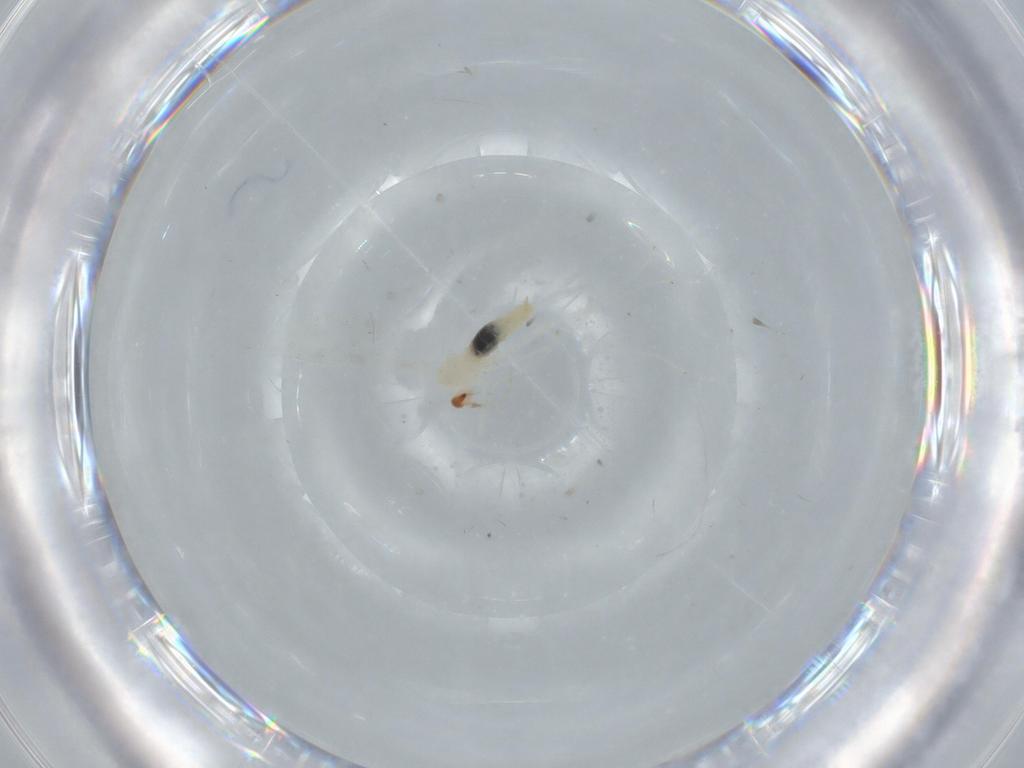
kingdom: Animalia
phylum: Arthropoda
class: Insecta
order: Diptera
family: Cecidomyiidae
